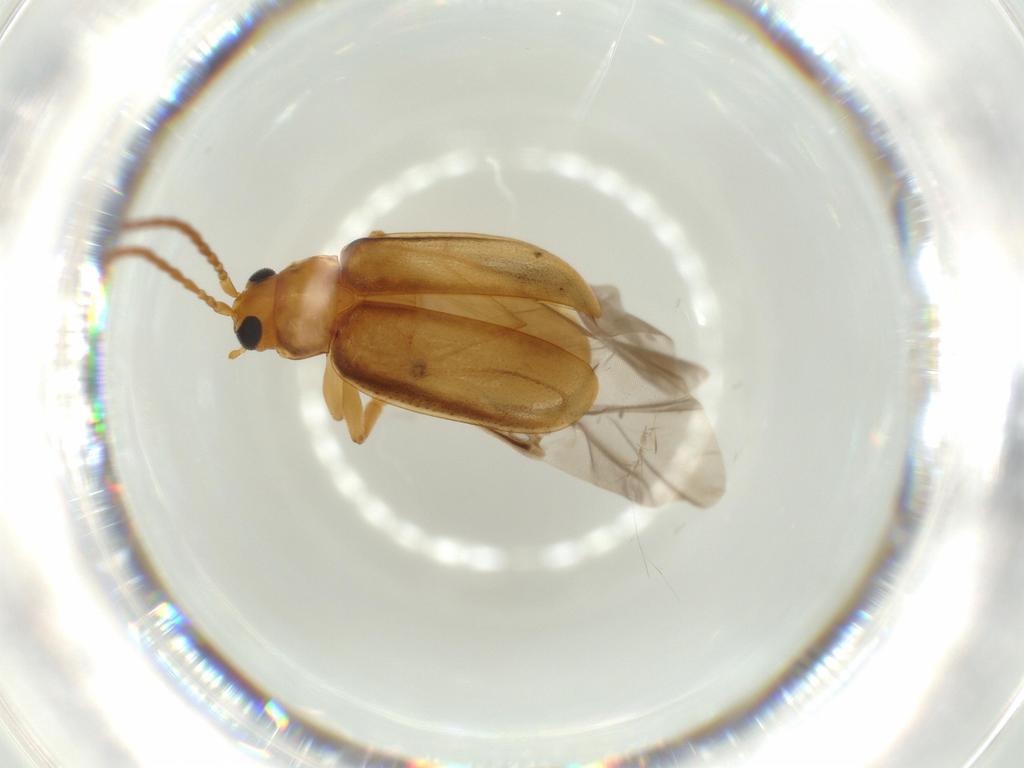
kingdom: Animalia
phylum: Arthropoda
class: Insecta
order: Coleoptera
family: Chrysomelidae
